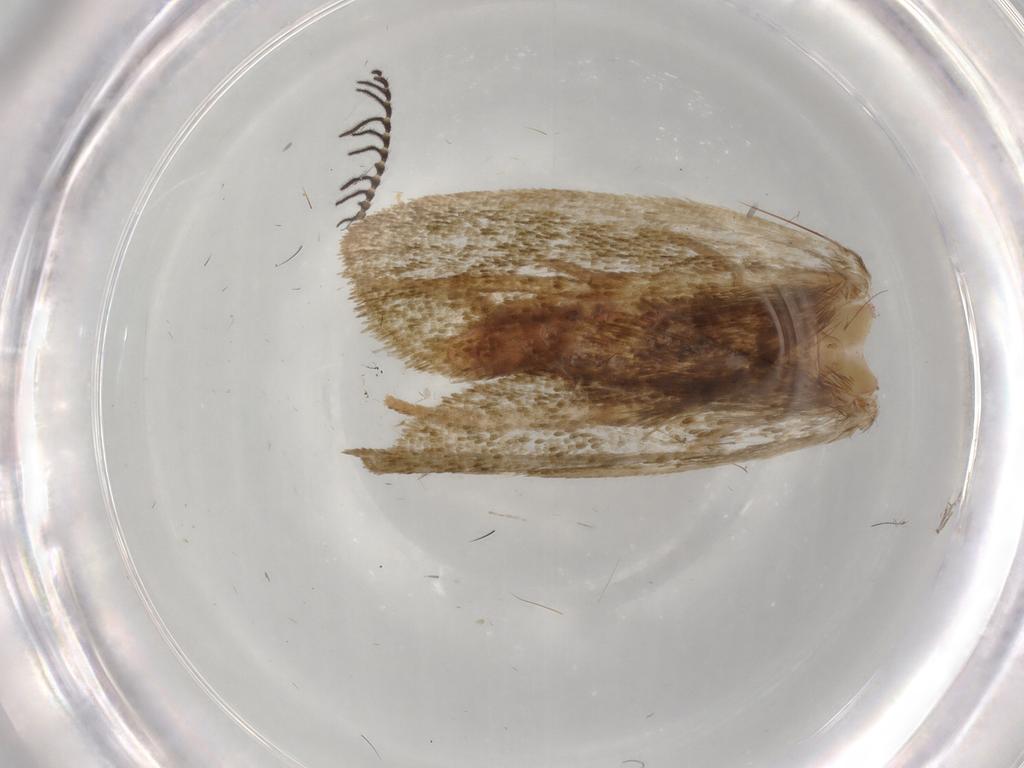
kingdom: Animalia
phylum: Arthropoda
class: Insecta
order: Lepidoptera
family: Geometridae
